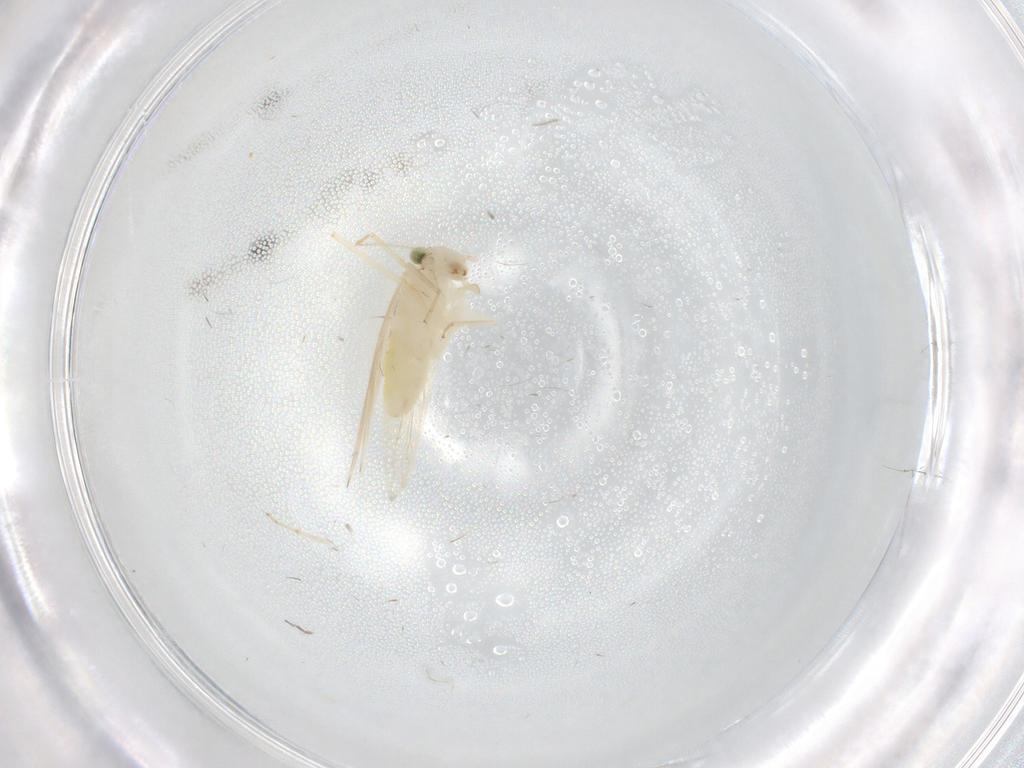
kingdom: Animalia
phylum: Arthropoda
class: Insecta
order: Psocodea
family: Lepidopsocidae
